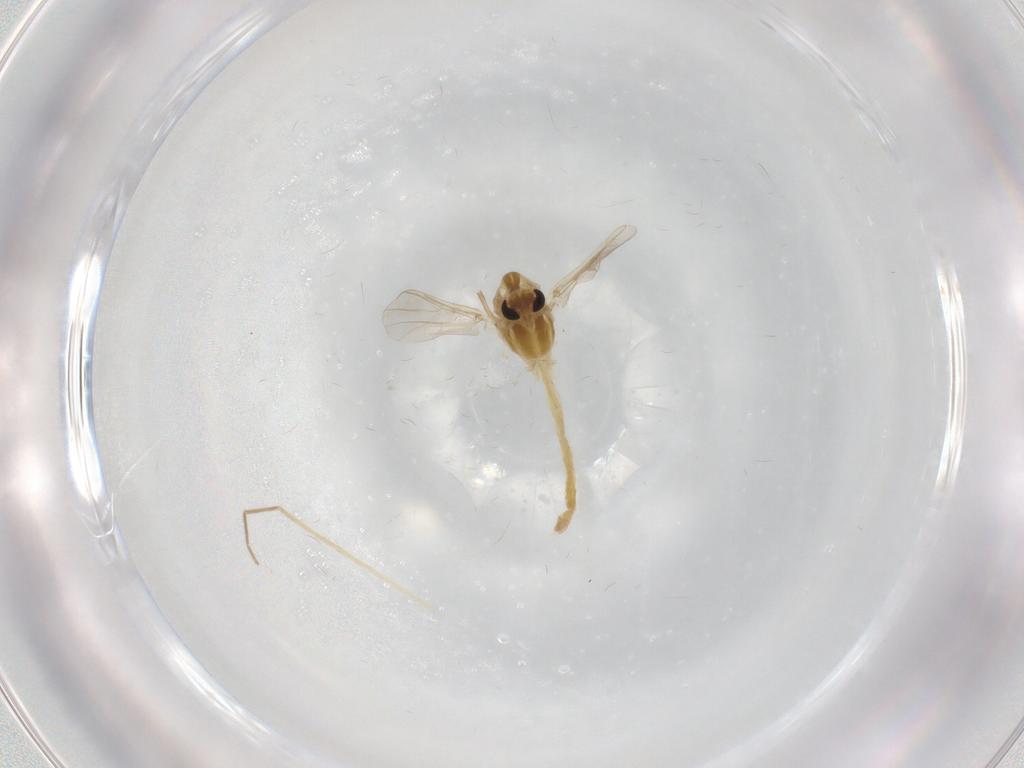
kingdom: Animalia
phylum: Arthropoda
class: Insecta
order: Diptera
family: Chironomidae
